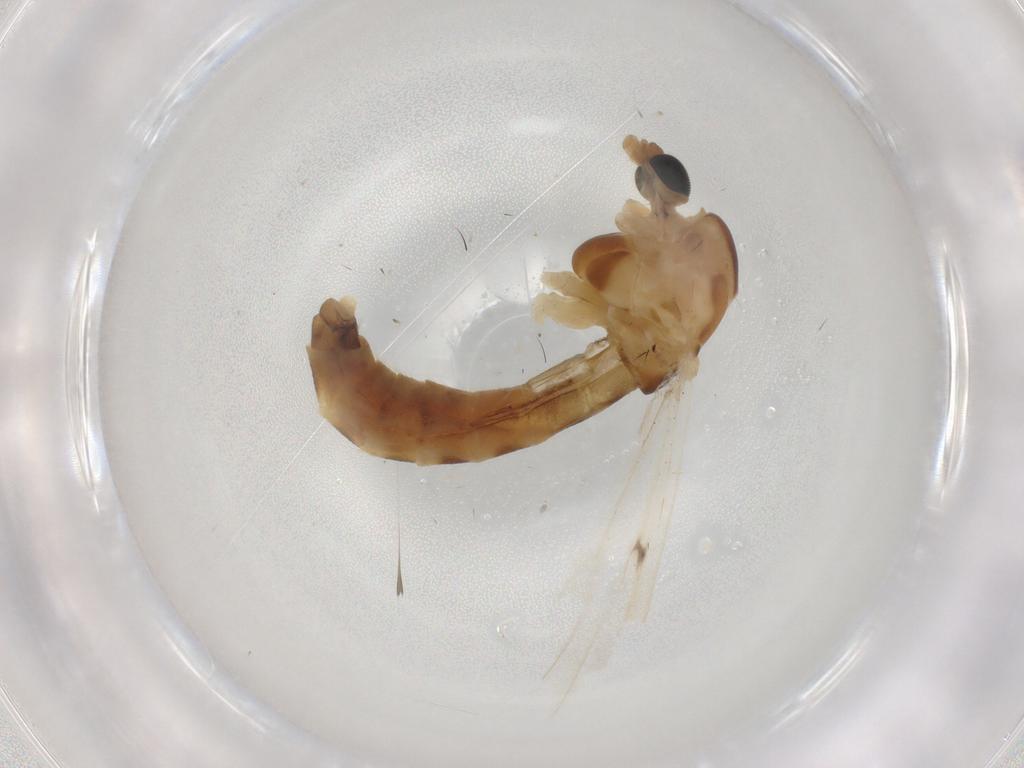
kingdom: Animalia
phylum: Arthropoda
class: Insecta
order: Diptera
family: Chironomidae
